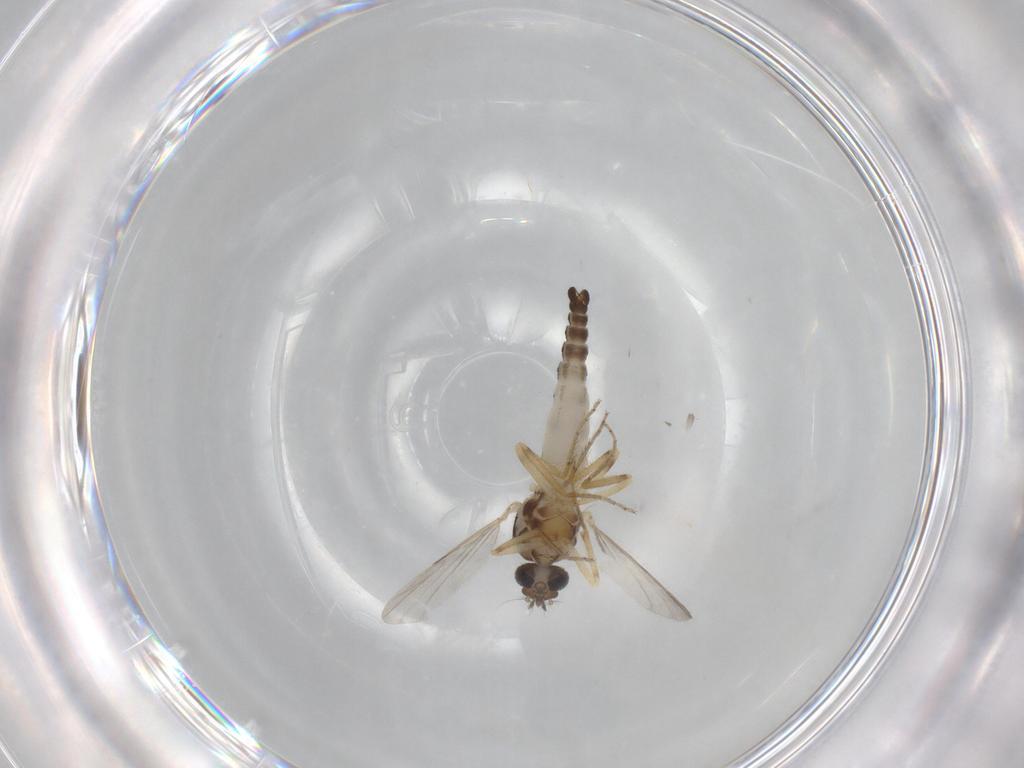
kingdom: Animalia
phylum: Arthropoda
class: Insecta
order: Diptera
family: Ceratopogonidae
